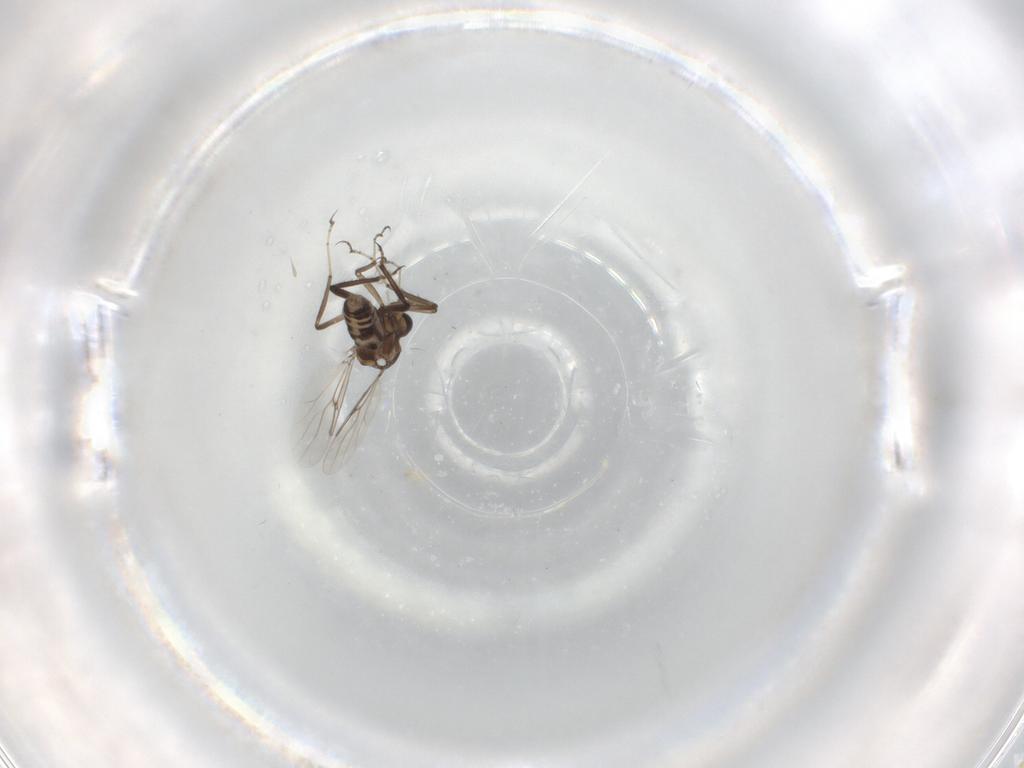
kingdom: Animalia
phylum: Arthropoda
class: Insecta
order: Diptera
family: Ceratopogonidae
